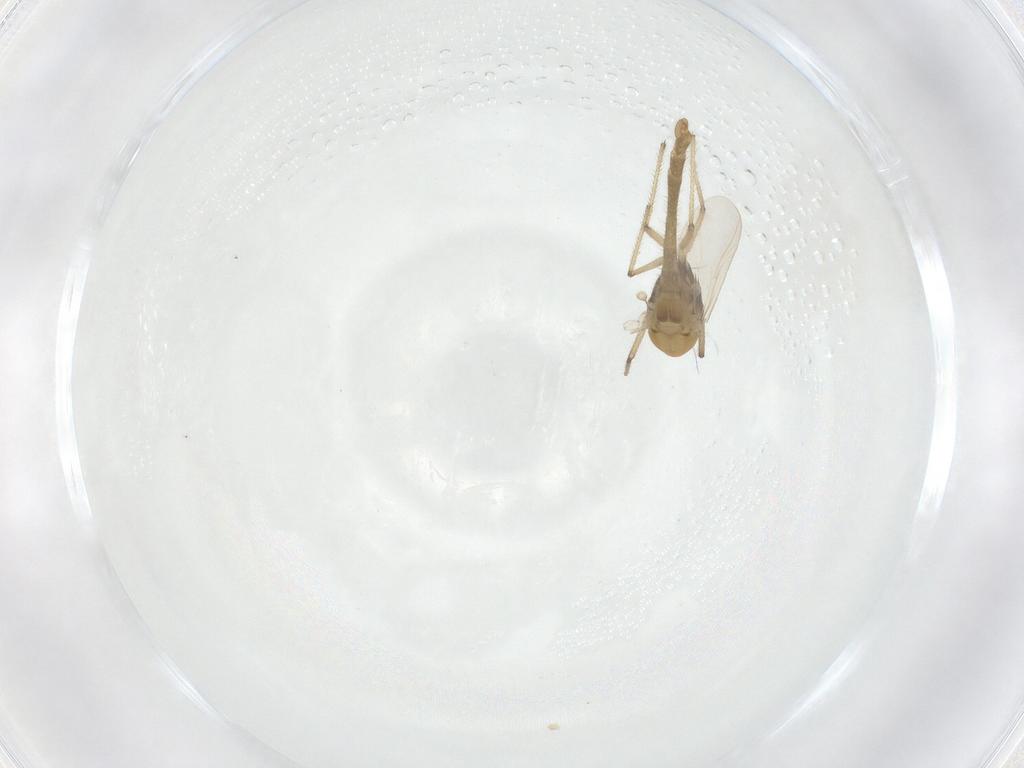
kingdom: Animalia
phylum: Arthropoda
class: Insecta
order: Diptera
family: Chironomidae
